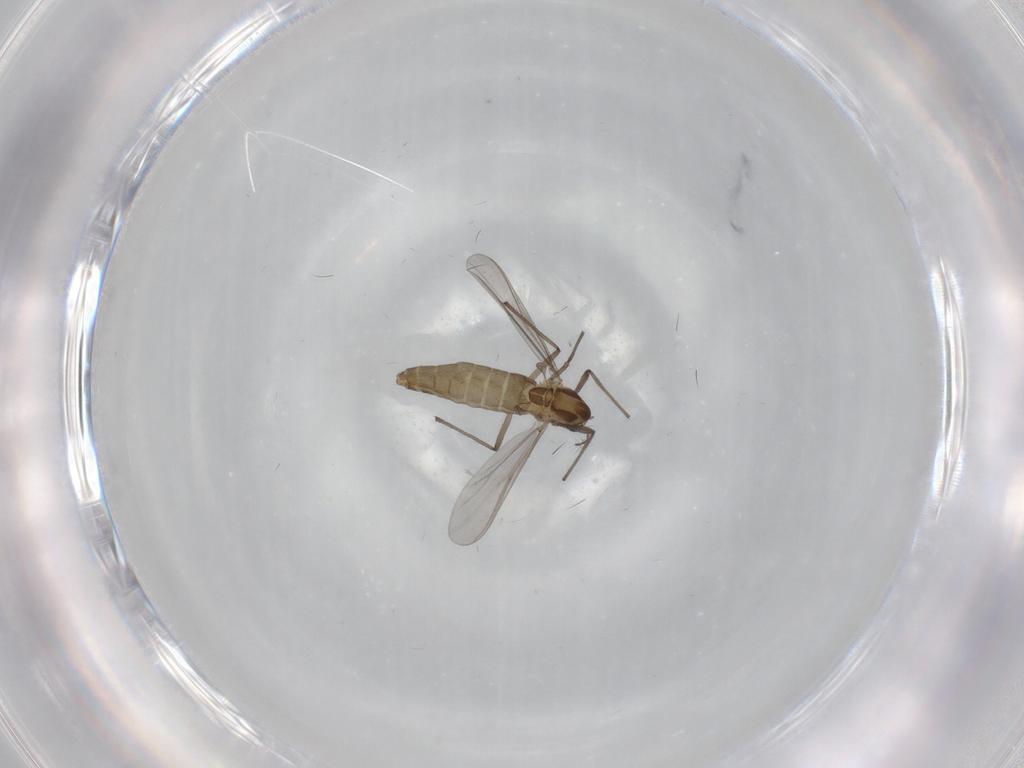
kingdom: Animalia
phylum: Arthropoda
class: Insecta
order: Diptera
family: Tabanidae
